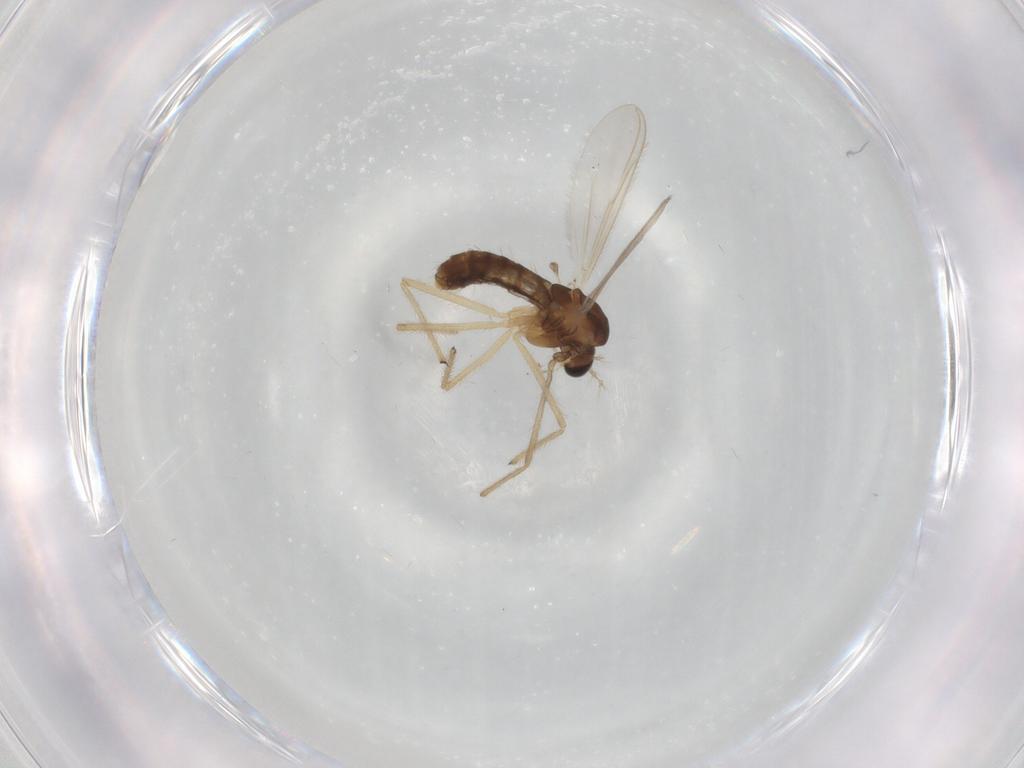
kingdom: Animalia
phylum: Arthropoda
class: Insecta
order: Diptera
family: Chironomidae
